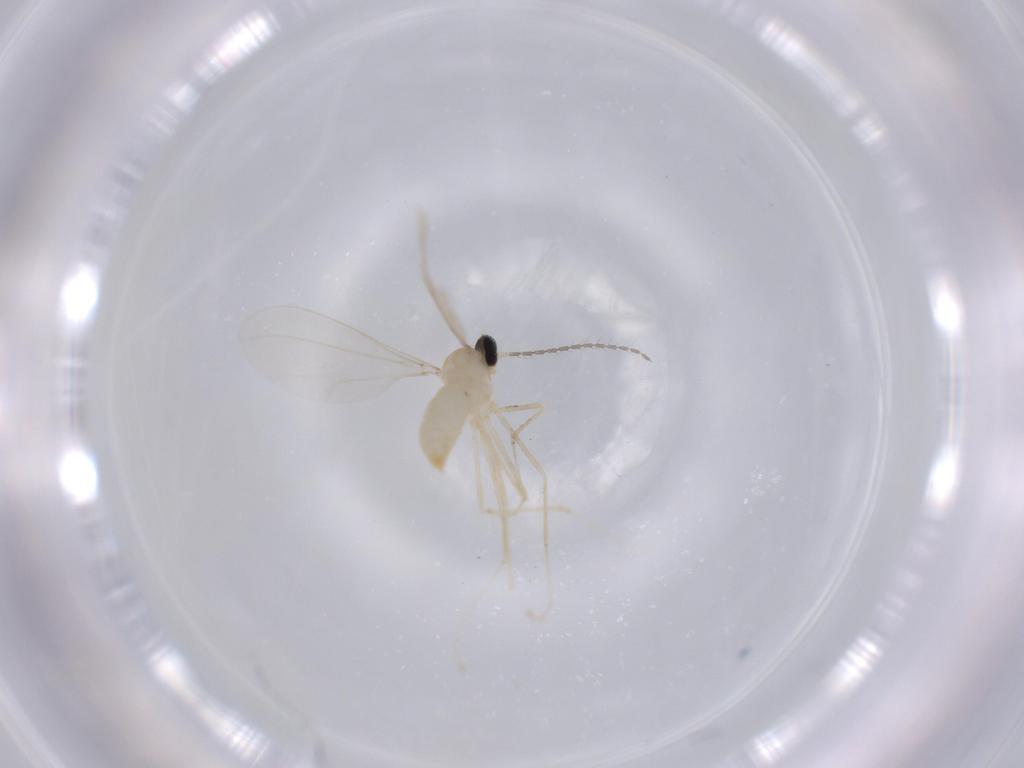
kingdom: Animalia
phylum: Arthropoda
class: Insecta
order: Diptera
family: Cecidomyiidae
